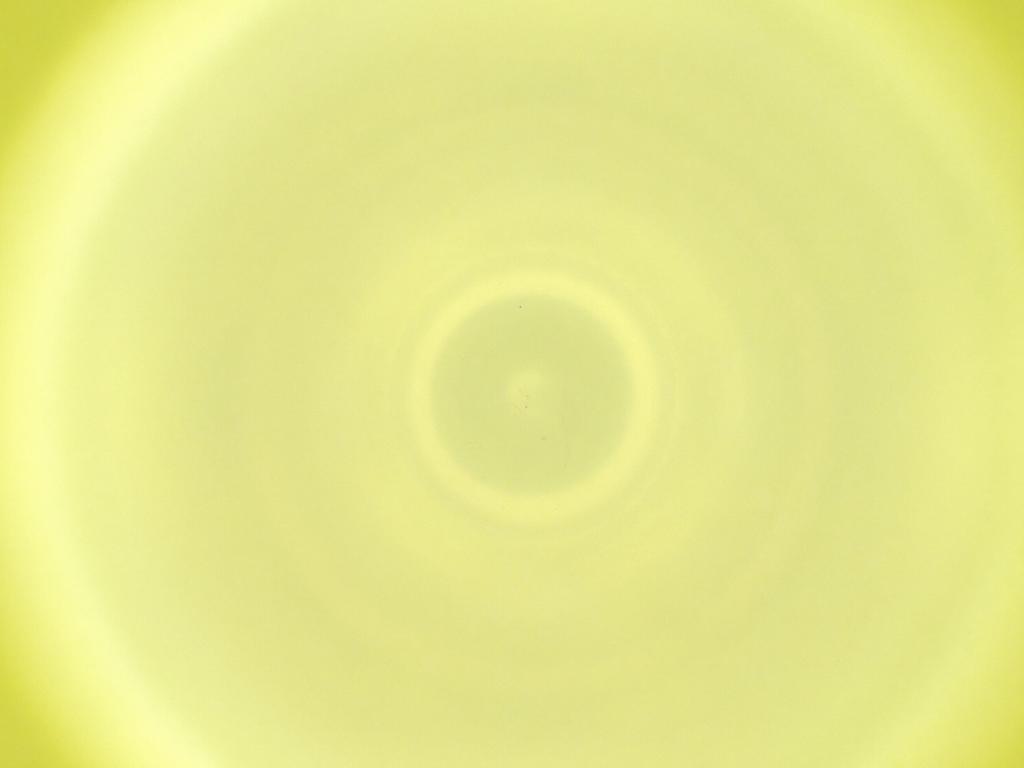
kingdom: Animalia
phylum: Arthropoda
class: Insecta
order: Diptera
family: Cecidomyiidae
